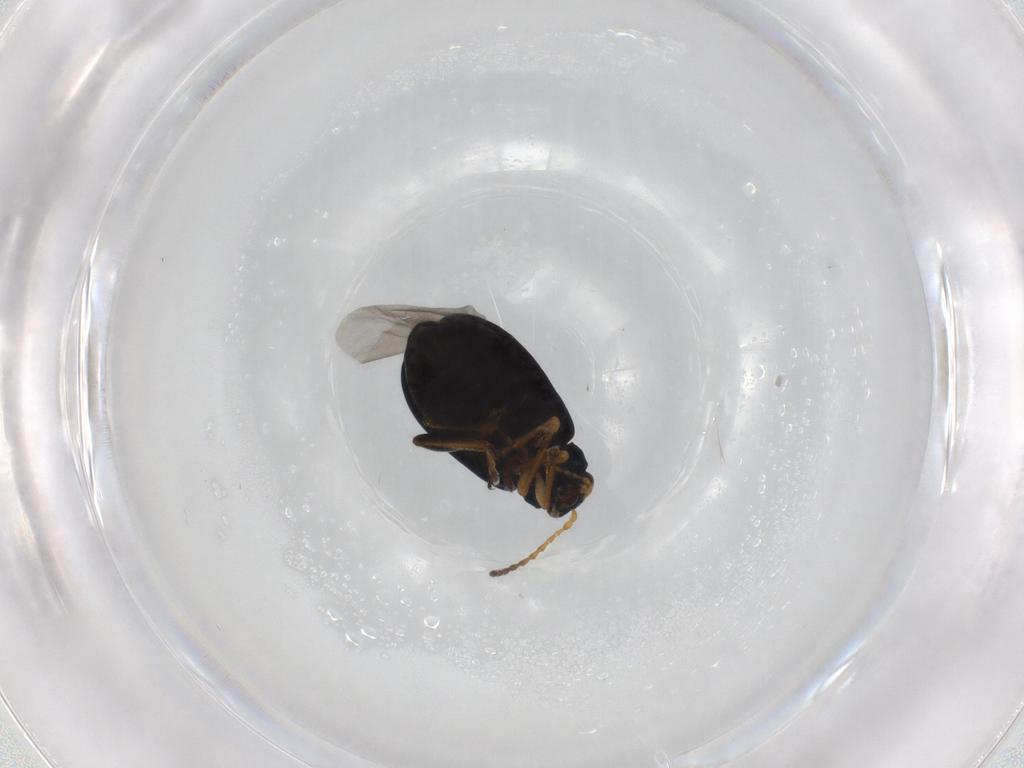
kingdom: Animalia
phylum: Arthropoda
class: Insecta
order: Coleoptera
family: Chrysomelidae
